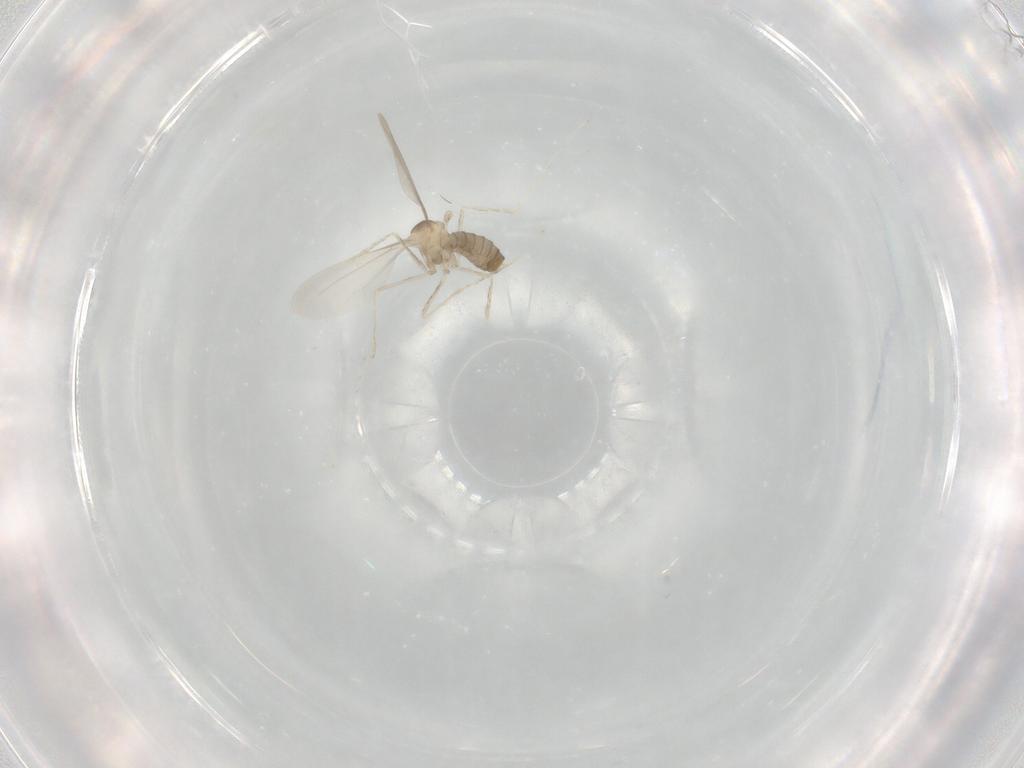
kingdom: Animalia
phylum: Arthropoda
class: Insecta
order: Diptera
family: Cecidomyiidae
